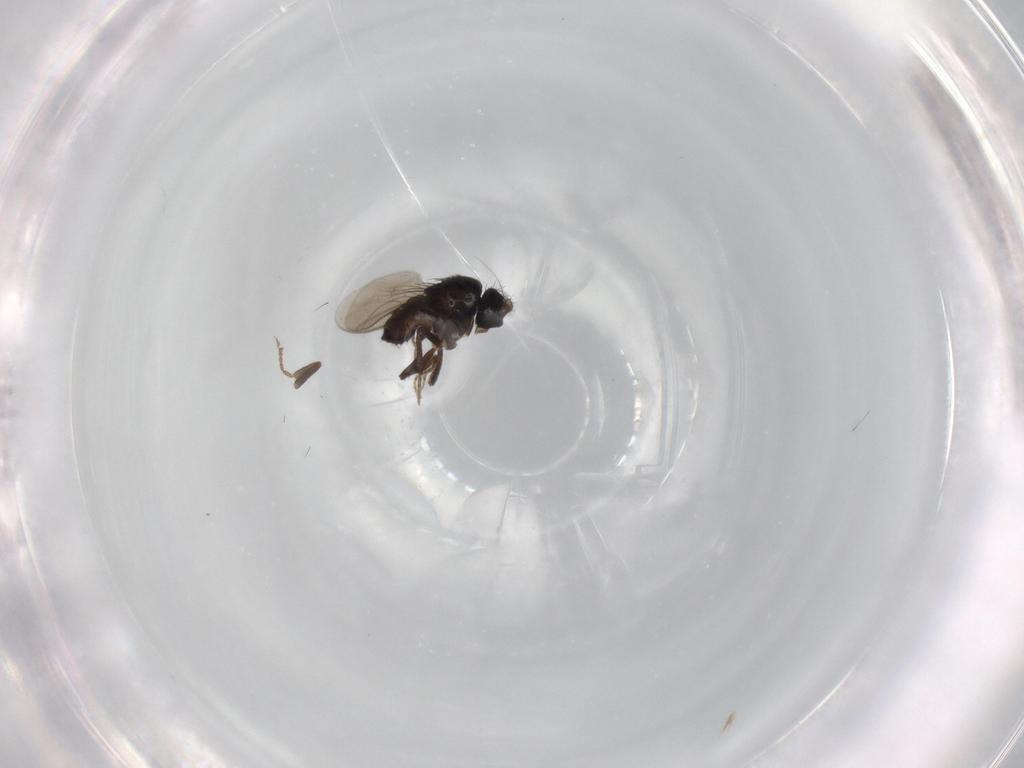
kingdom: Animalia
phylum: Arthropoda
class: Insecta
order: Diptera
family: Sphaeroceridae
